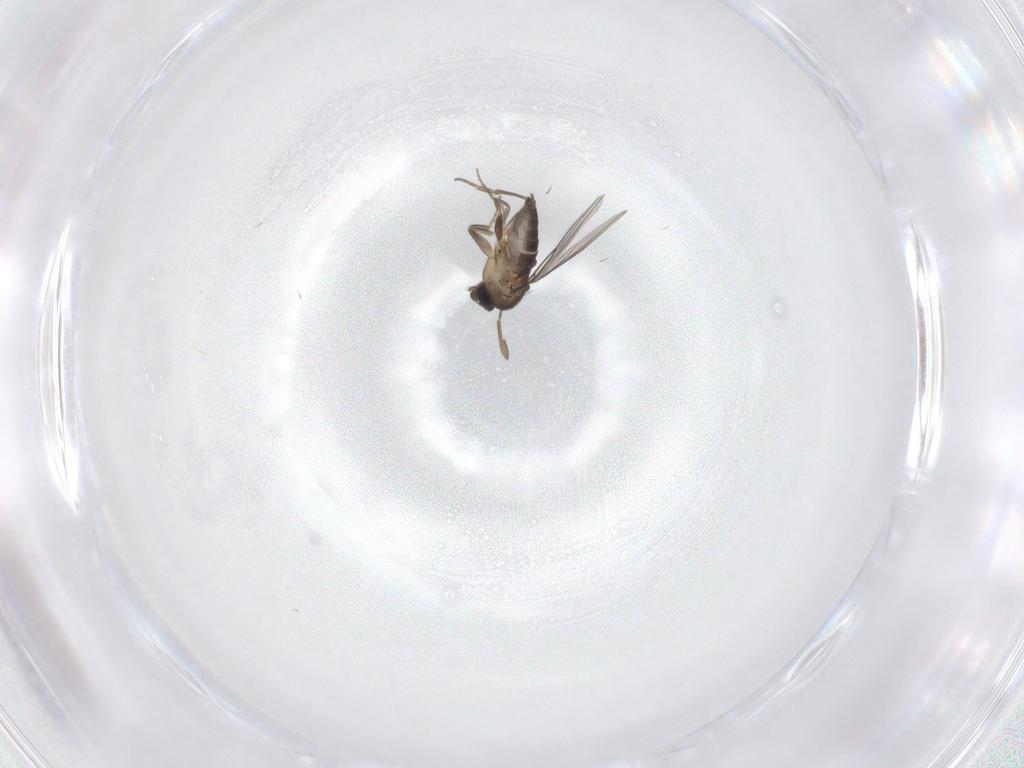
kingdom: Animalia
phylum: Arthropoda
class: Insecta
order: Diptera
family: Phoridae
